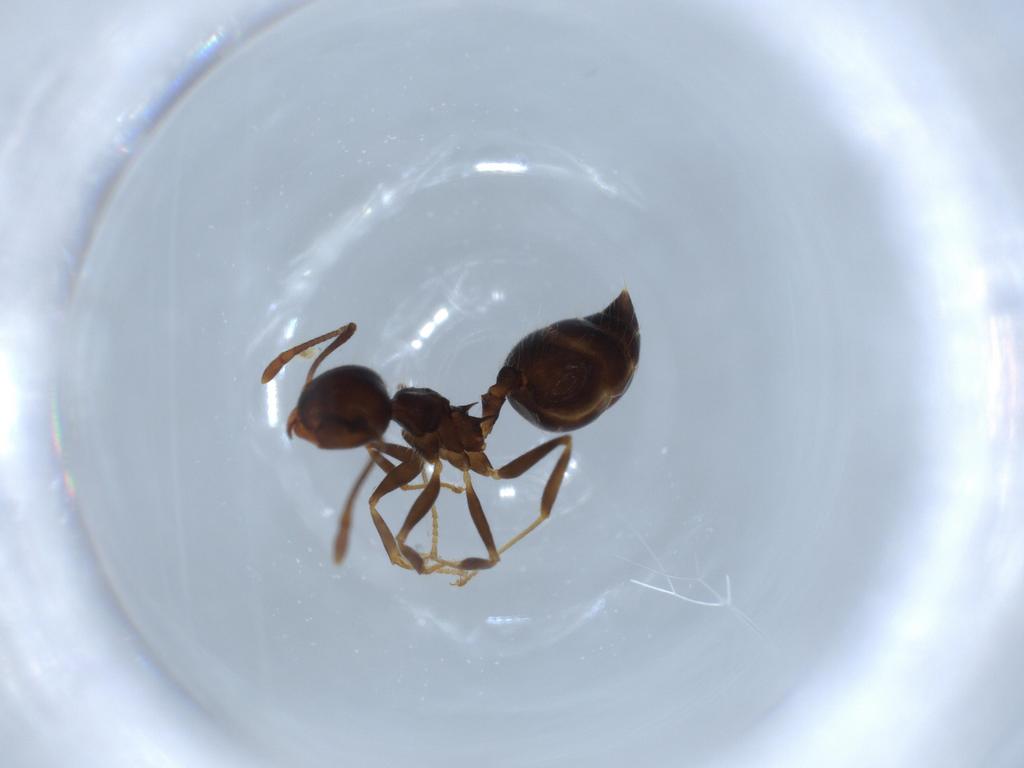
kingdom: Animalia
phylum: Arthropoda
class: Insecta
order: Hymenoptera
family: Formicidae
